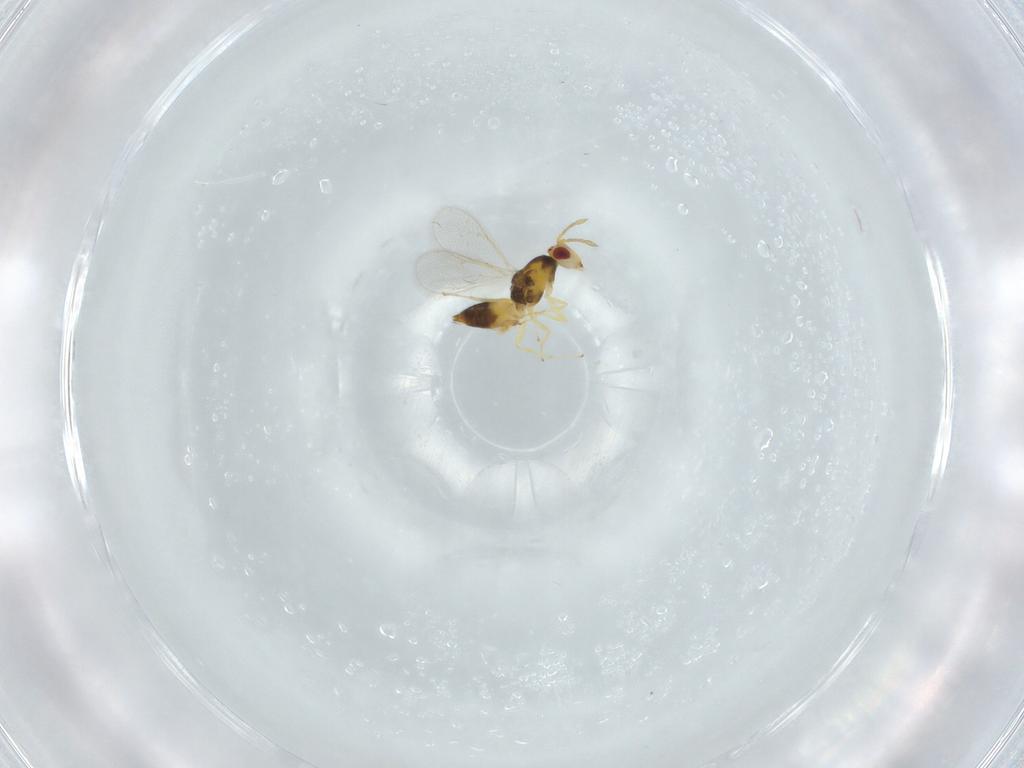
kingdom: Animalia
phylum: Arthropoda
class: Insecta
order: Hymenoptera
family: Eulophidae
